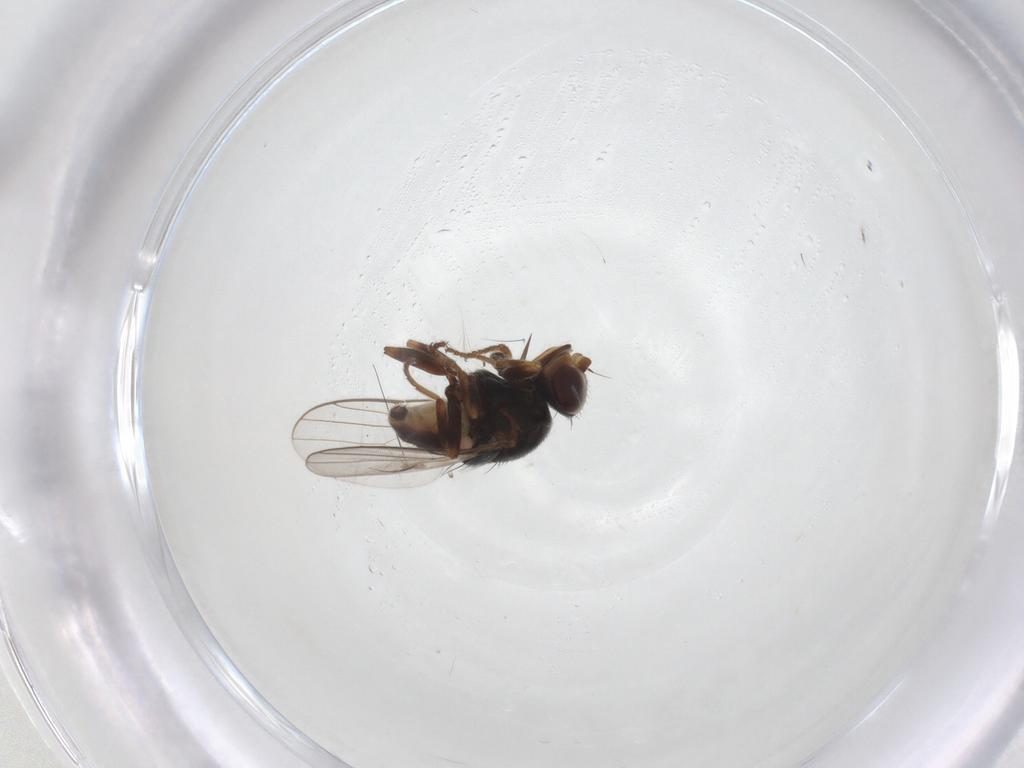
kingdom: Animalia
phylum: Arthropoda
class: Insecta
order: Diptera
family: Chloropidae
